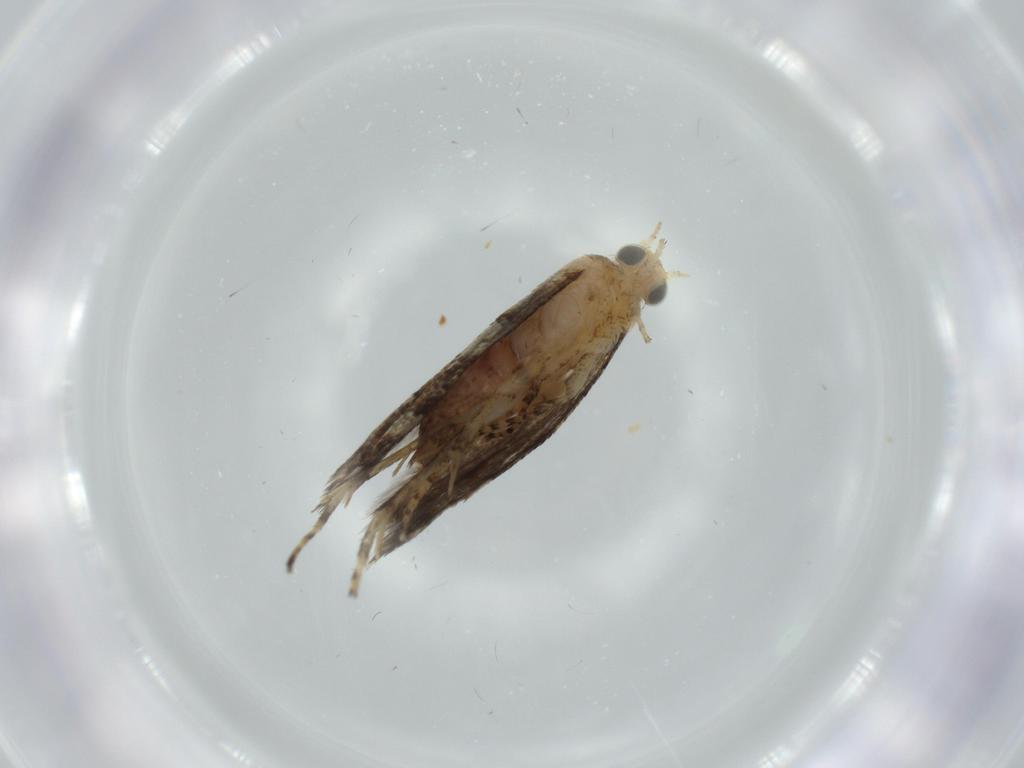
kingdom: Animalia
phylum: Arthropoda
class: Insecta
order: Lepidoptera
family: Glyphipterigidae
